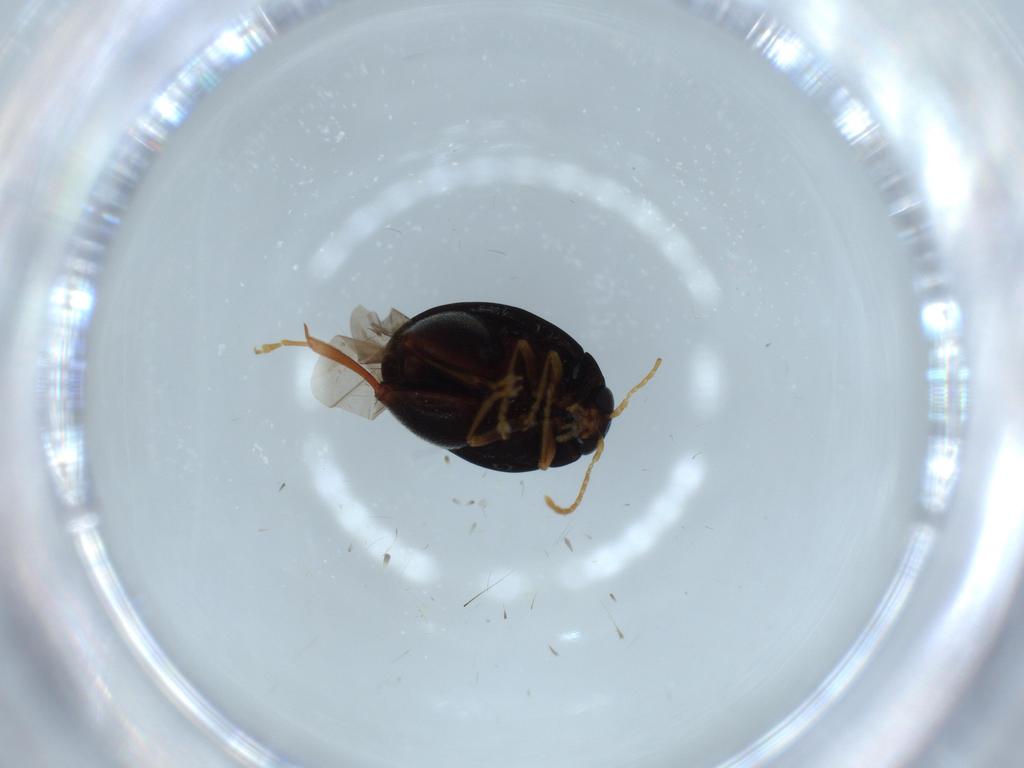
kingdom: Animalia
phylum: Arthropoda
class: Insecta
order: Coleoptera
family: Chrysomelidae
